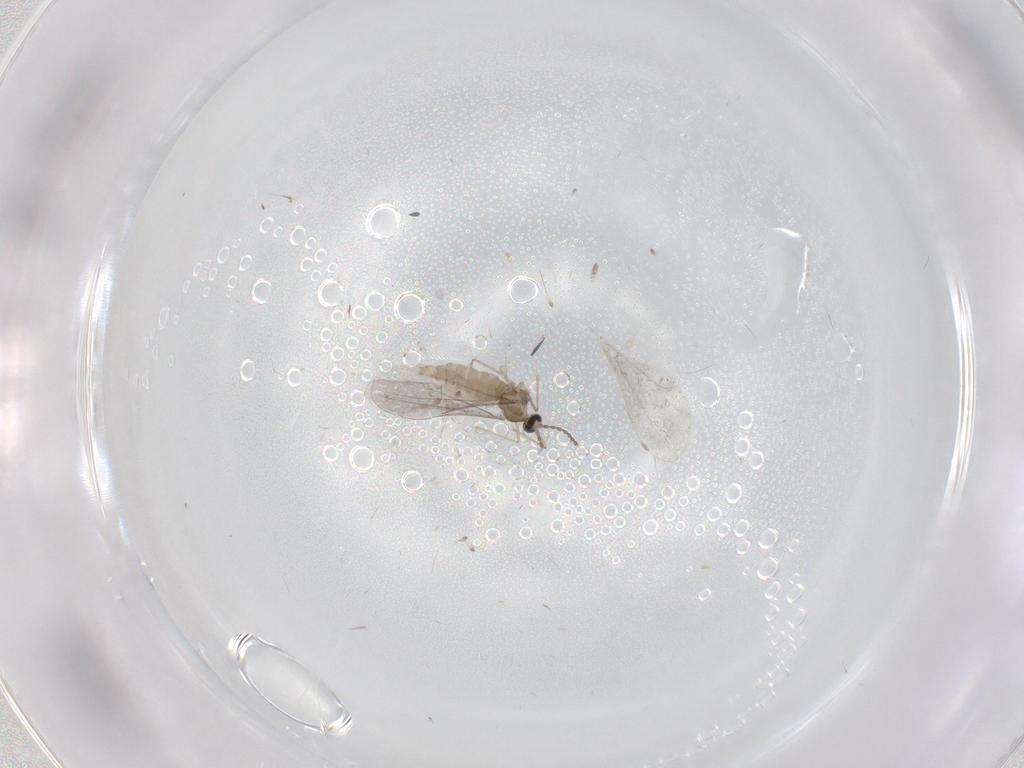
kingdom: Animalia
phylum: Arthropoda
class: Insecta
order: Diptera
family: Cecidomyiidae
